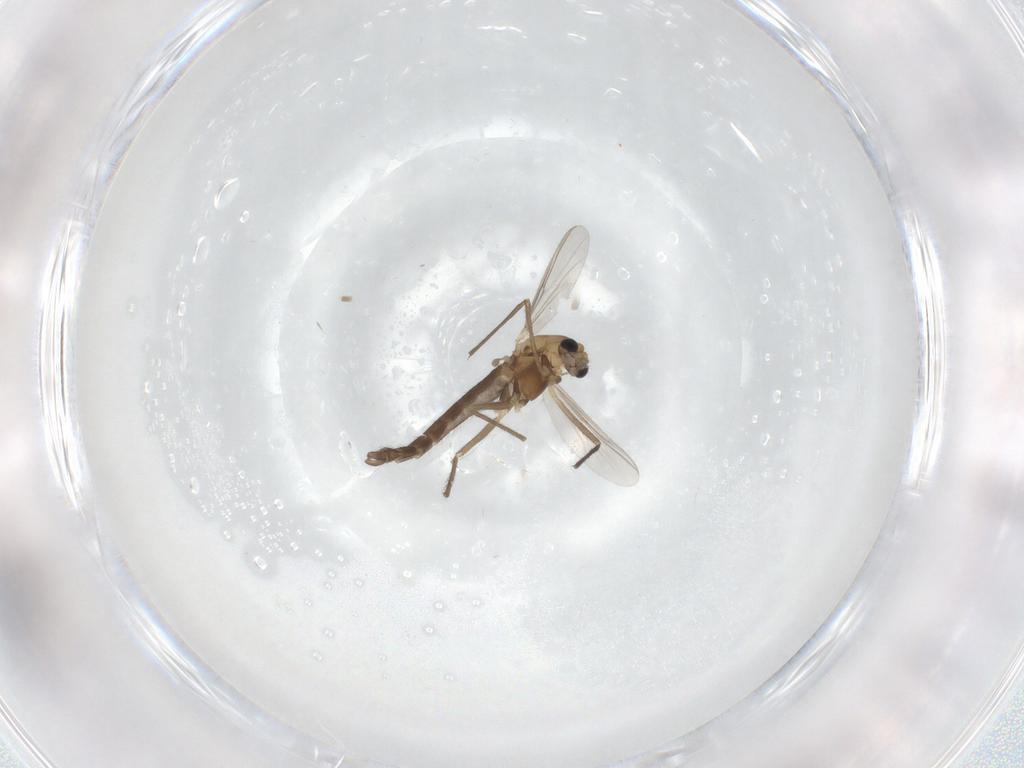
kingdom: Animalia
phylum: Arthropoda
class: Insecta
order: Diptera
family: Chironomidae
